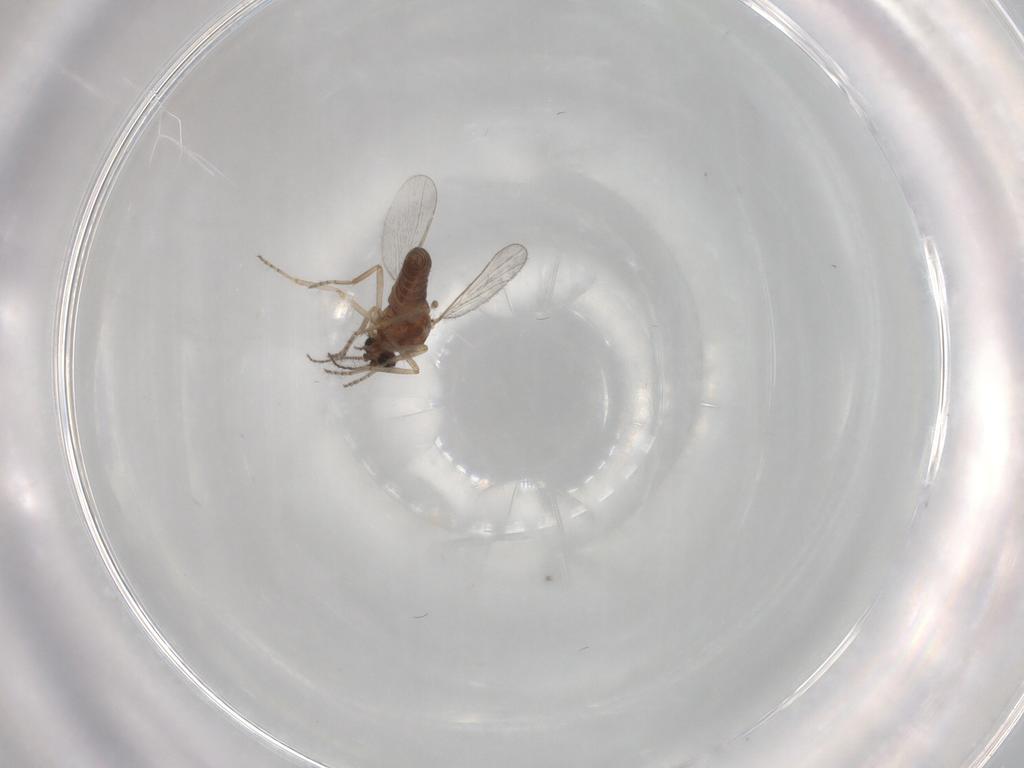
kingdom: Animalia
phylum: Arthropoda
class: Insecta
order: Diptera
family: Ceratopogonidae
